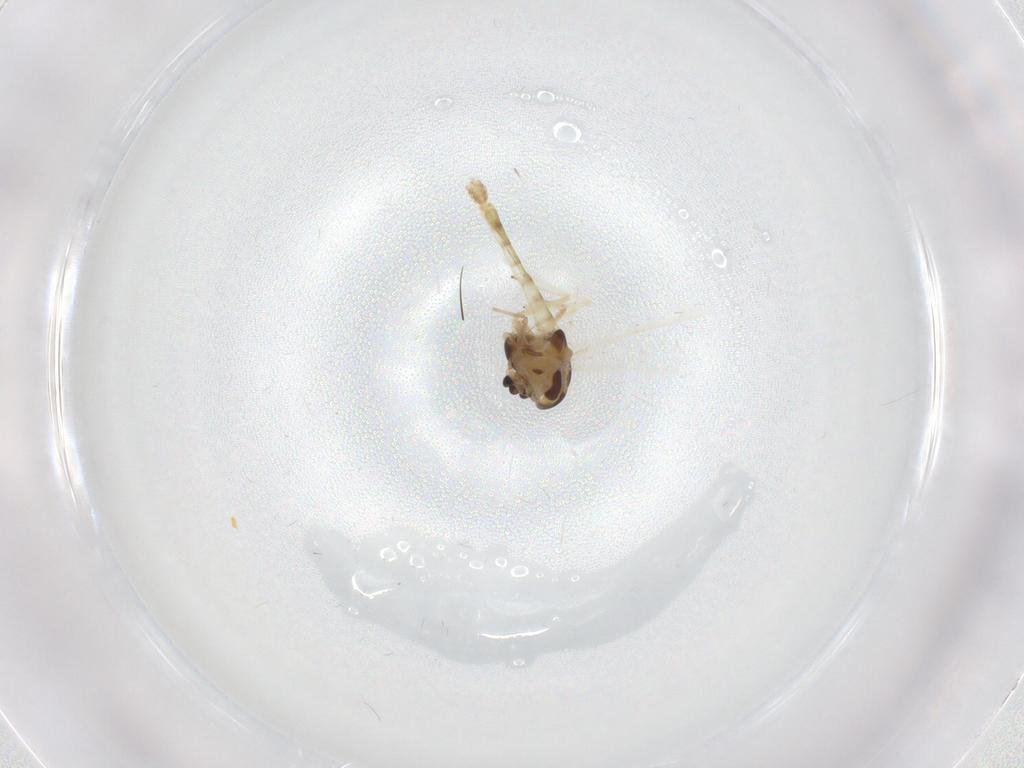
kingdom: Animalia
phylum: Arthropoda
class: Insecta
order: Diptera
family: Chironomidae
